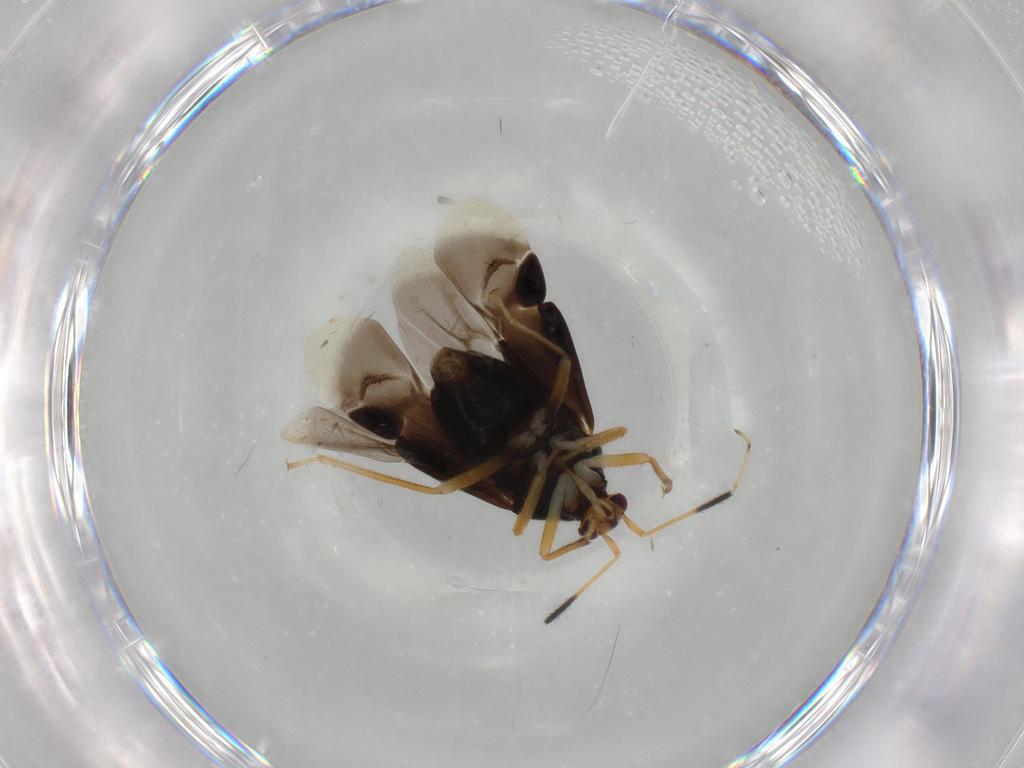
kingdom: Animalia
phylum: Arthropoda
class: Insecta
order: Hemiptera
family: Miridae
